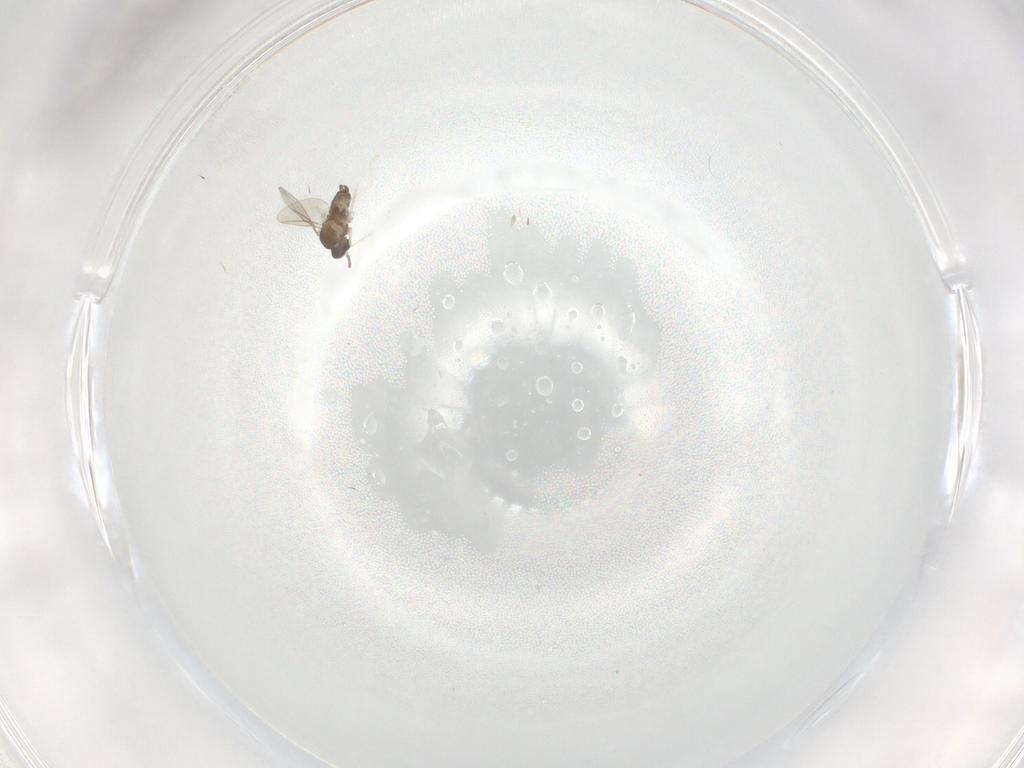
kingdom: Animalia
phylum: Arthropoda
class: Insecta
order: Diptera
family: Cecidomyiidae
